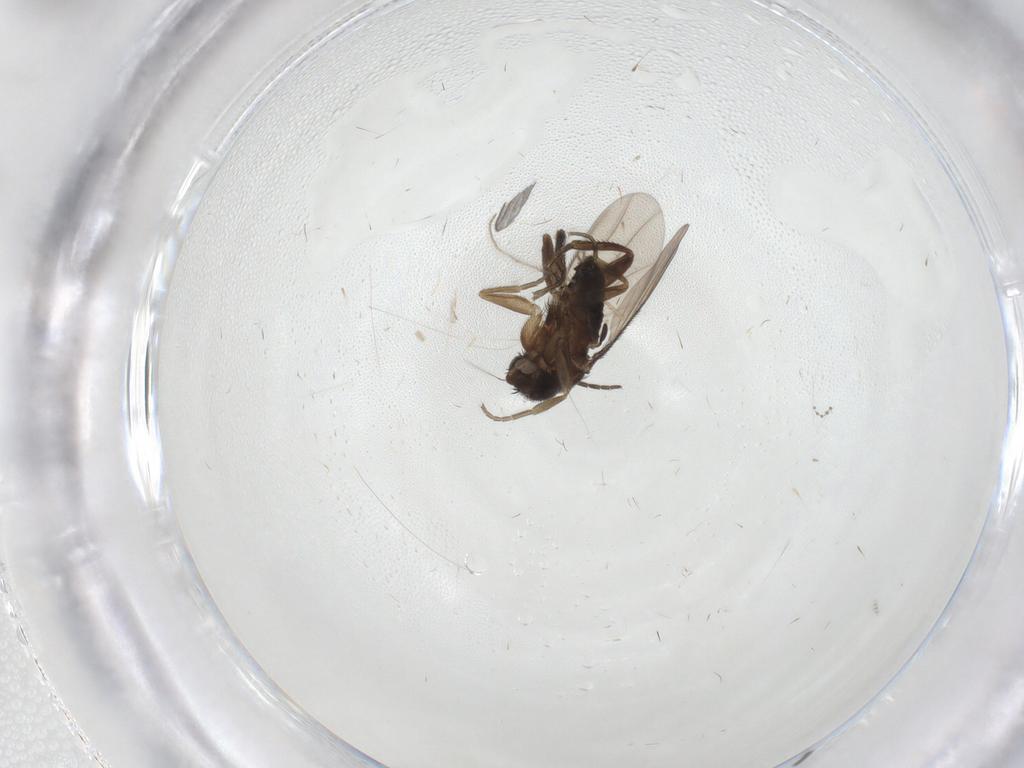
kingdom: Animalia
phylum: Arthropoda
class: Insecta
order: Diptera
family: Phoridae
